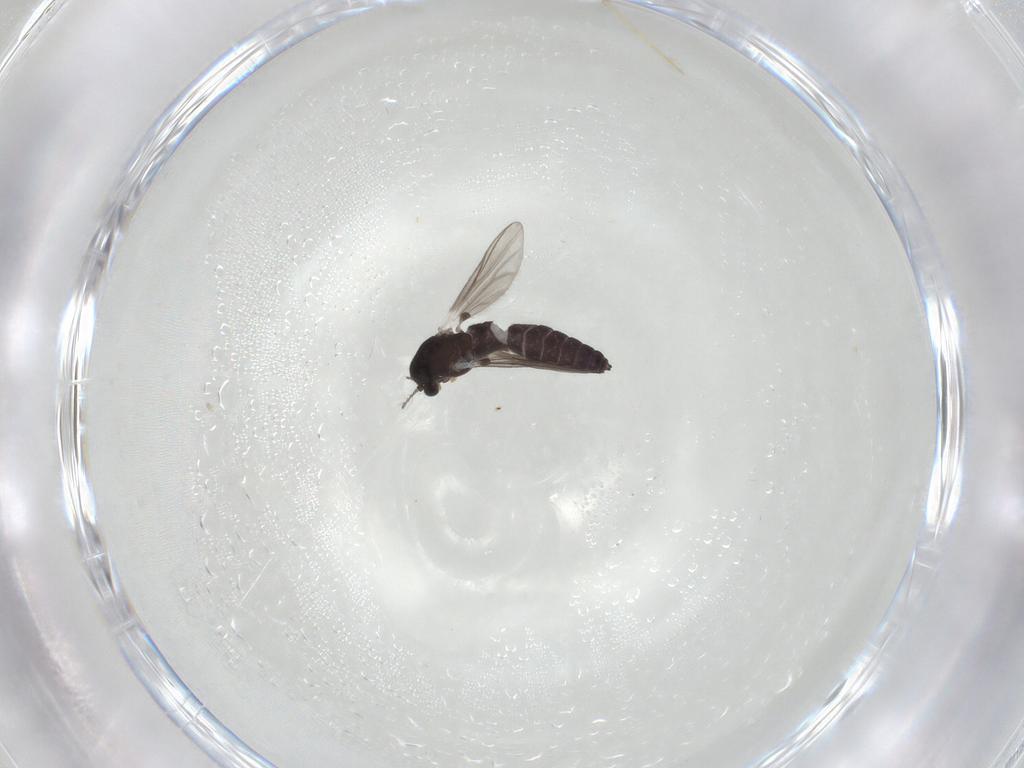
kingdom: Animalia
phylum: Arthropoda
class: Insecta
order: Diptera
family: Chironomidae
